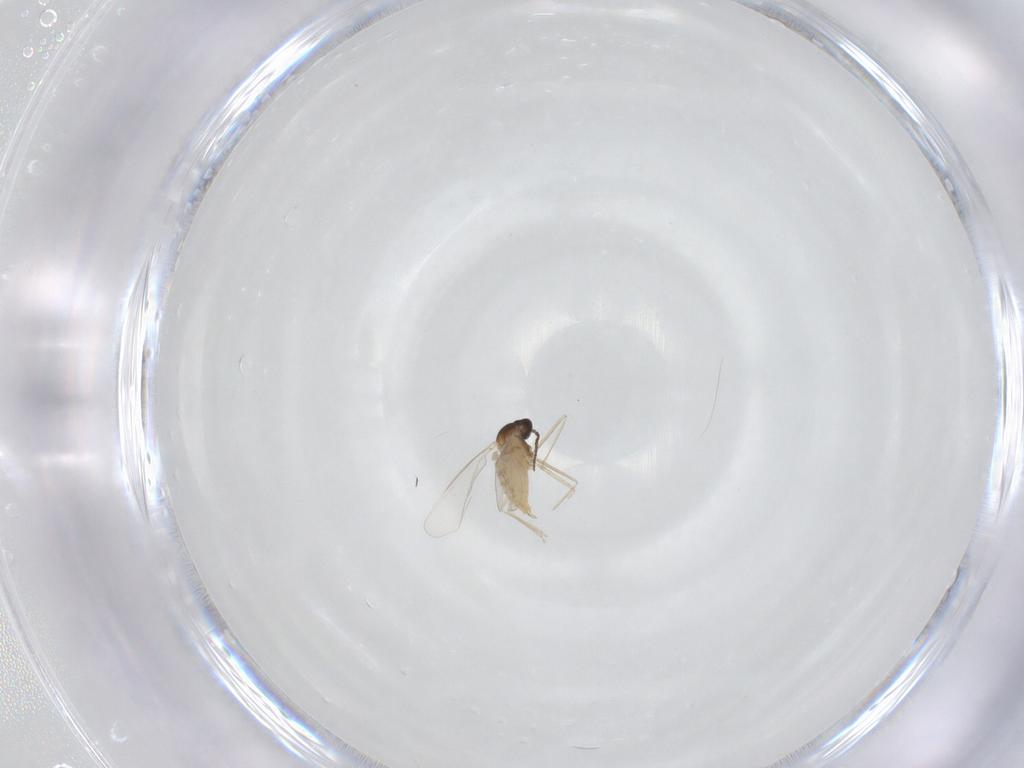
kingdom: Animalia
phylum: Arthropoda
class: Insecta
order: Diptera
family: Cecidomyiidae
